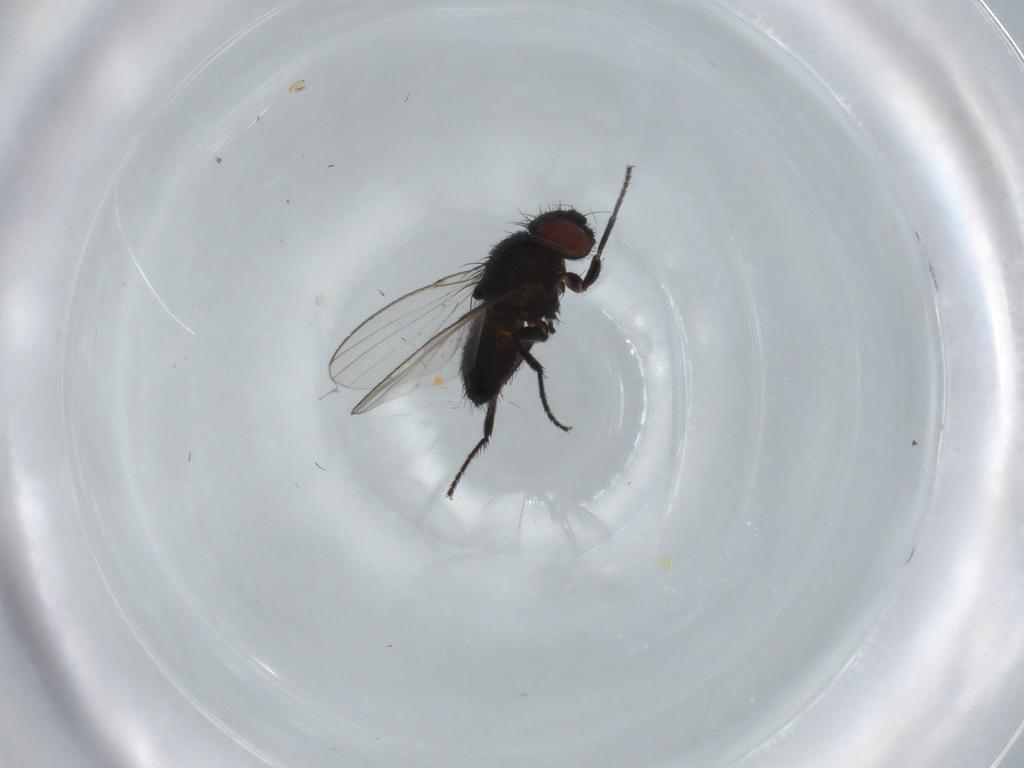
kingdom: Animalia
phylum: Arthropoda
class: Insecta
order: Diptera
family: Milichiidae
